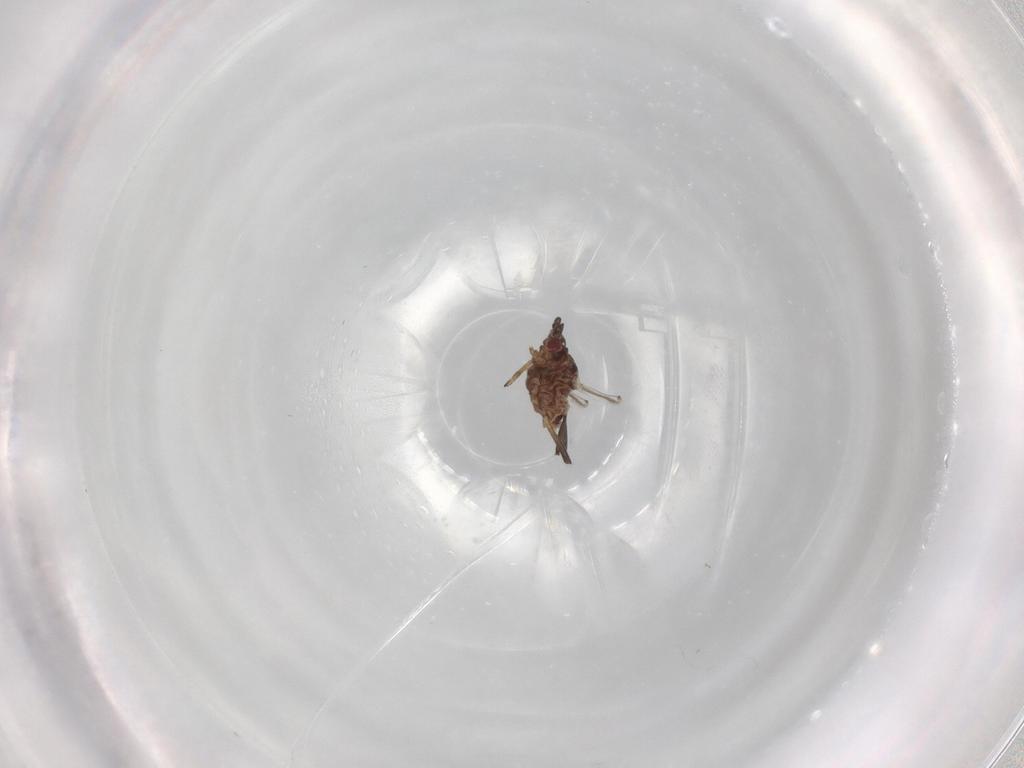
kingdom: Animalia
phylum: Arthropoda
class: Insecta
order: Hemiptera
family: Aphididae
